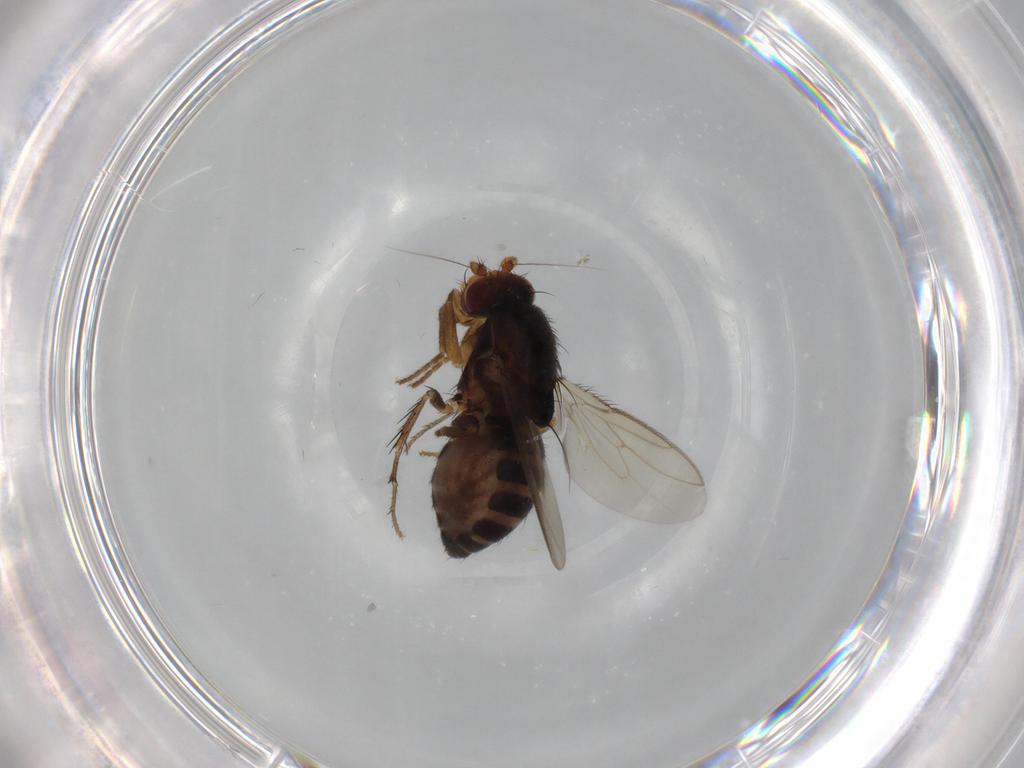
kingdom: Animalia
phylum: Arthropoda
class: Insecta
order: Diptera
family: Sphaeroceridae
